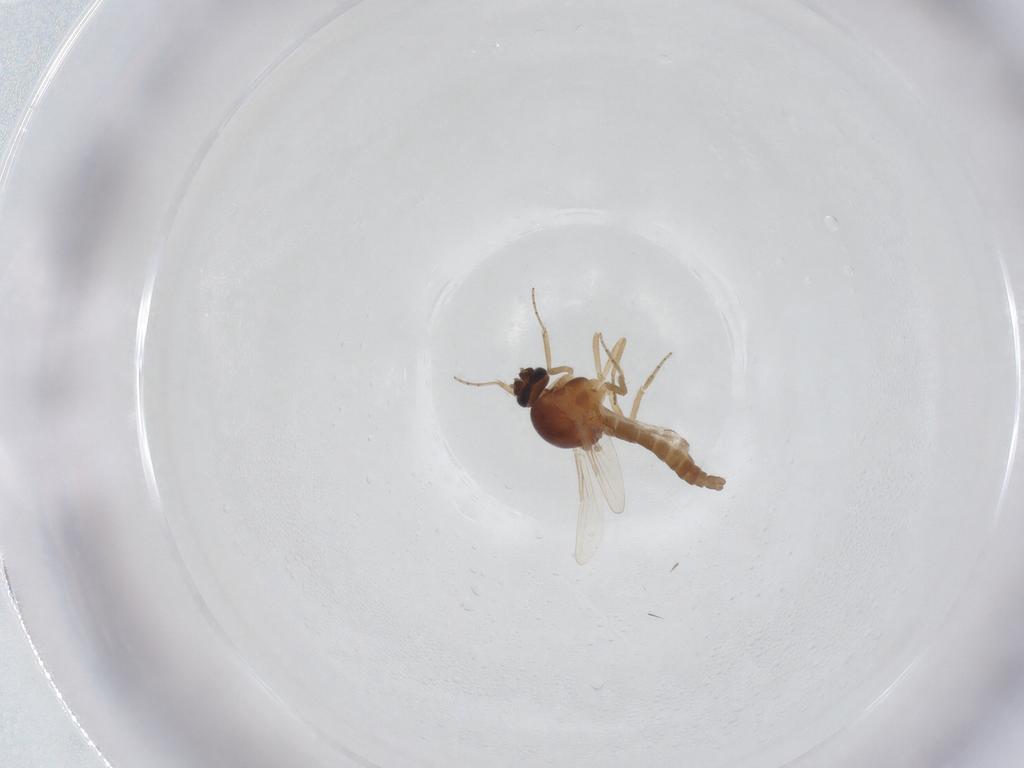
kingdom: Animalia
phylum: Arthropoda
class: Insecta
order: Diptera
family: Ceratopogonidae
